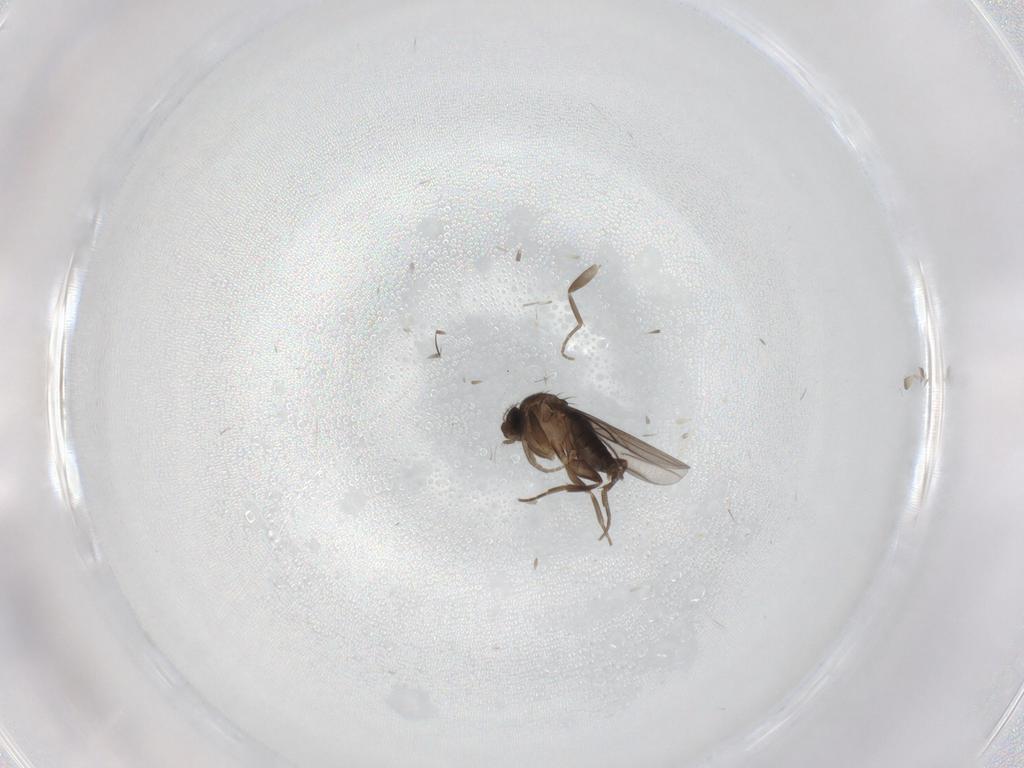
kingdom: Animalia
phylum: Arthropoda
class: Insecta
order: Diptera
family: Phoridae
